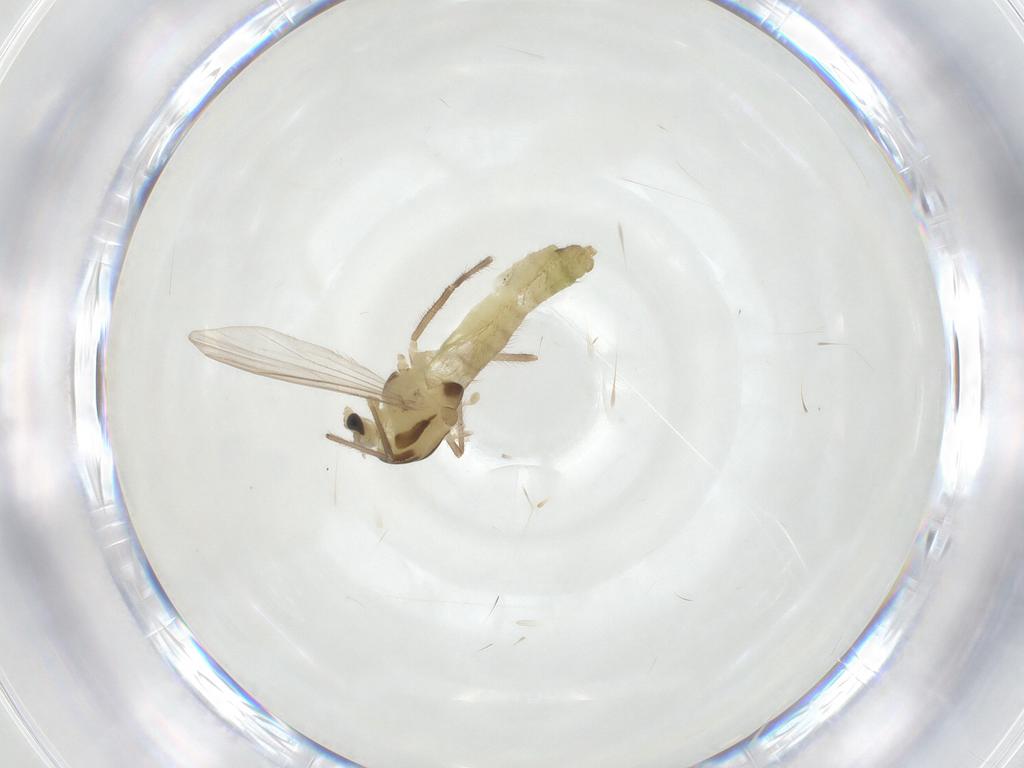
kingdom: Animalia
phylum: Arthropoda
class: Insecta
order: Diptera
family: Chironomidae
